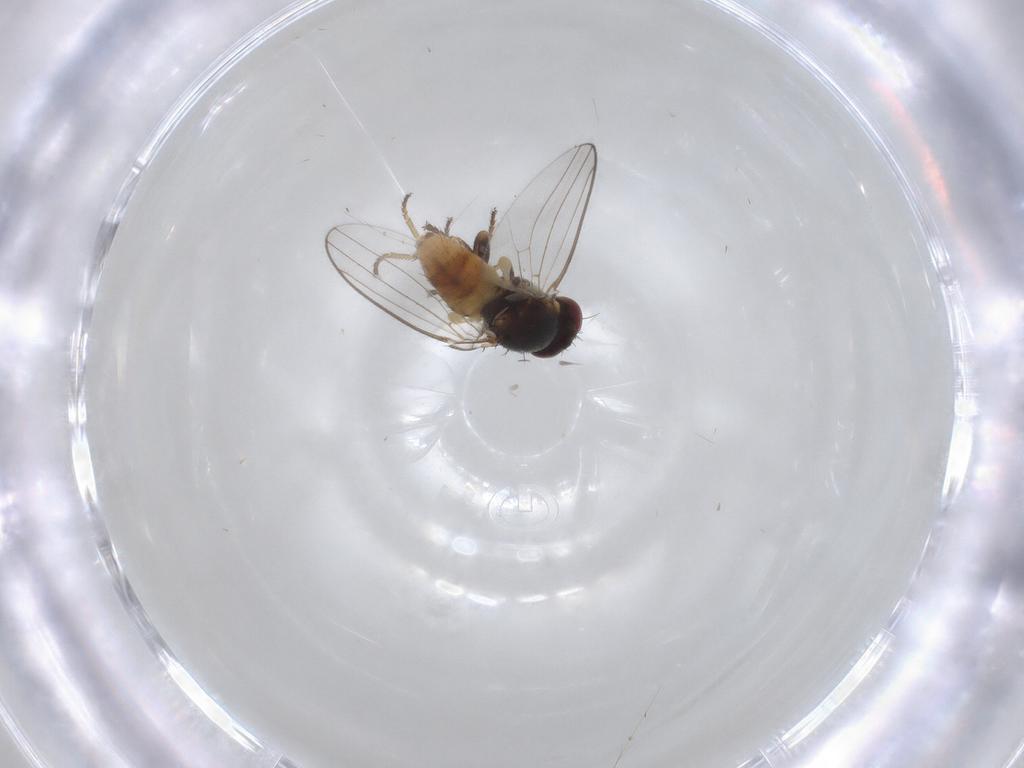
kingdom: Animalia
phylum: Arthropoda
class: Insecta
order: Diptera
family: Chloropidae
